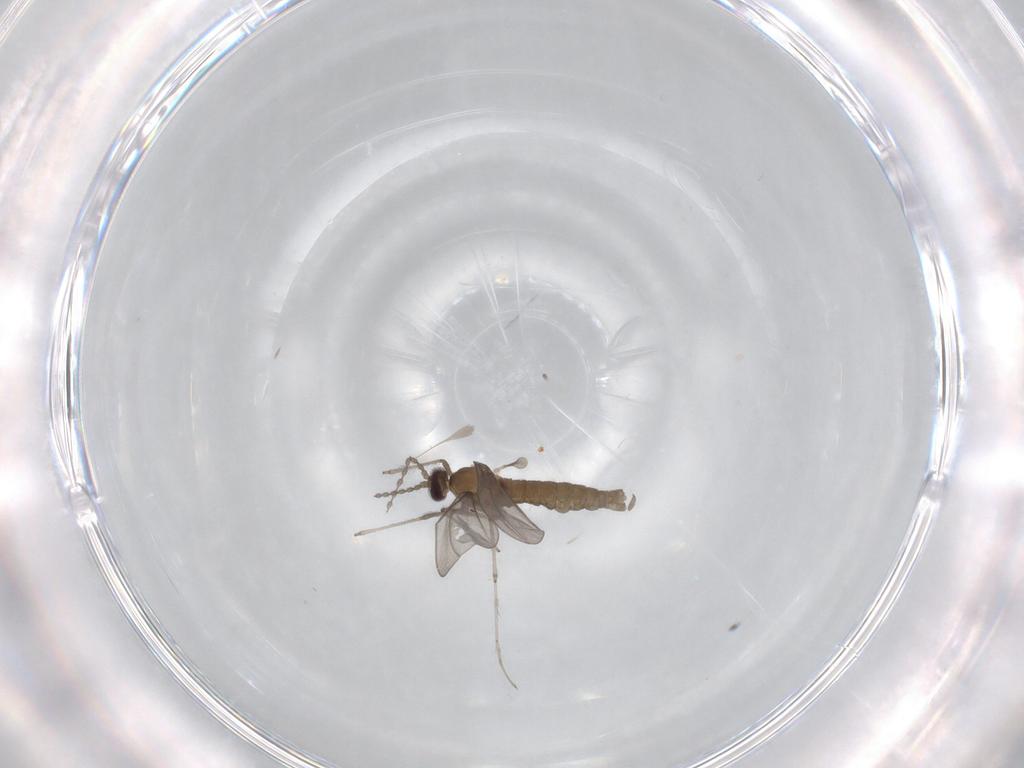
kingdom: Animalia
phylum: Arthropoda
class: Insecta
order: Diptera
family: Cecidomyiidae
